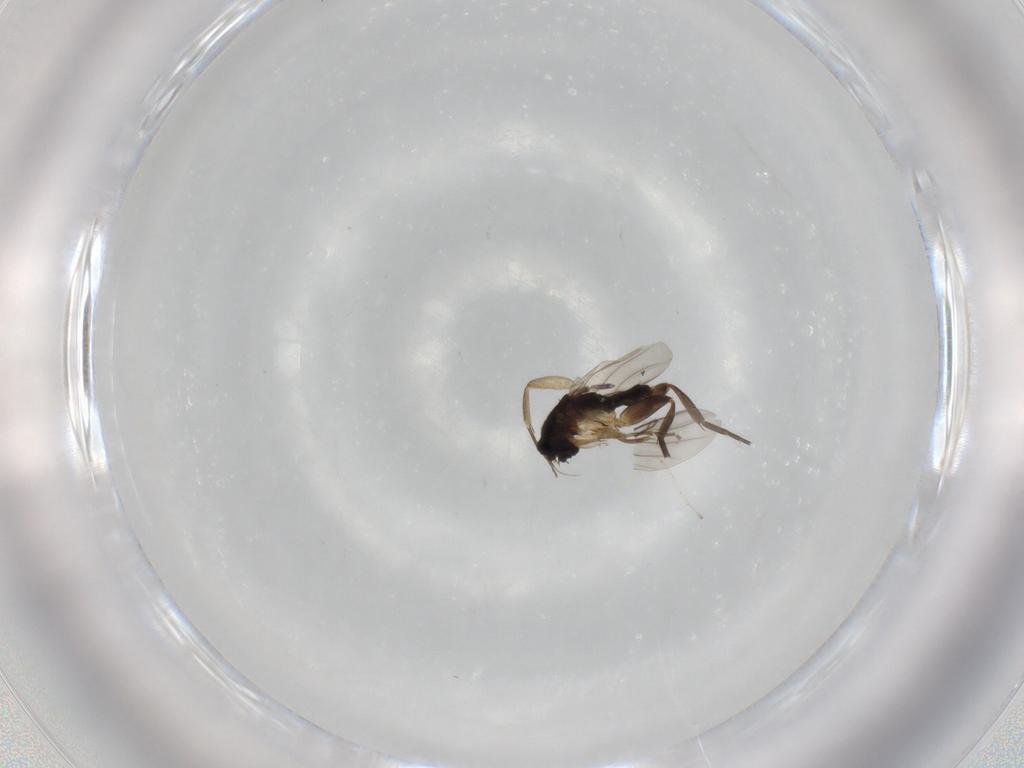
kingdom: Animalia
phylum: Arthropoda
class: Insecta
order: Diptera
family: Cecidomyiidae
